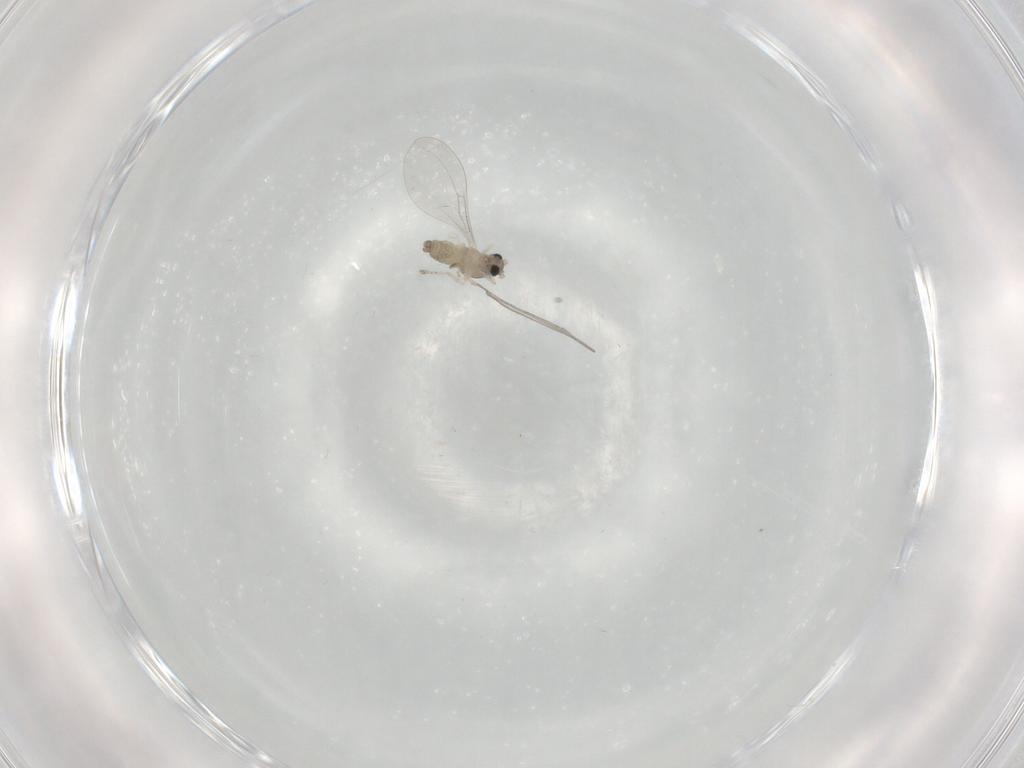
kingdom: Animalia
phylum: Arthropoda
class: Insecta
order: Diptera
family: Cecidomyiidae
